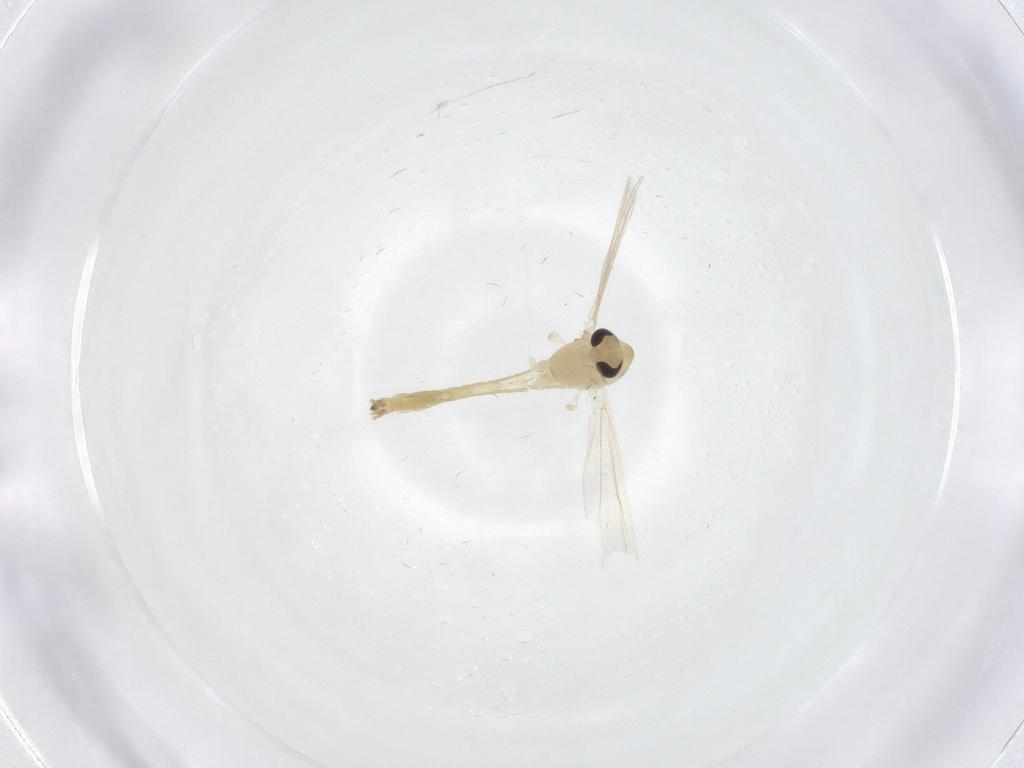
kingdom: Animalia
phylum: Arthropoda
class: Insecta
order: Diptera
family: Chironomidae
